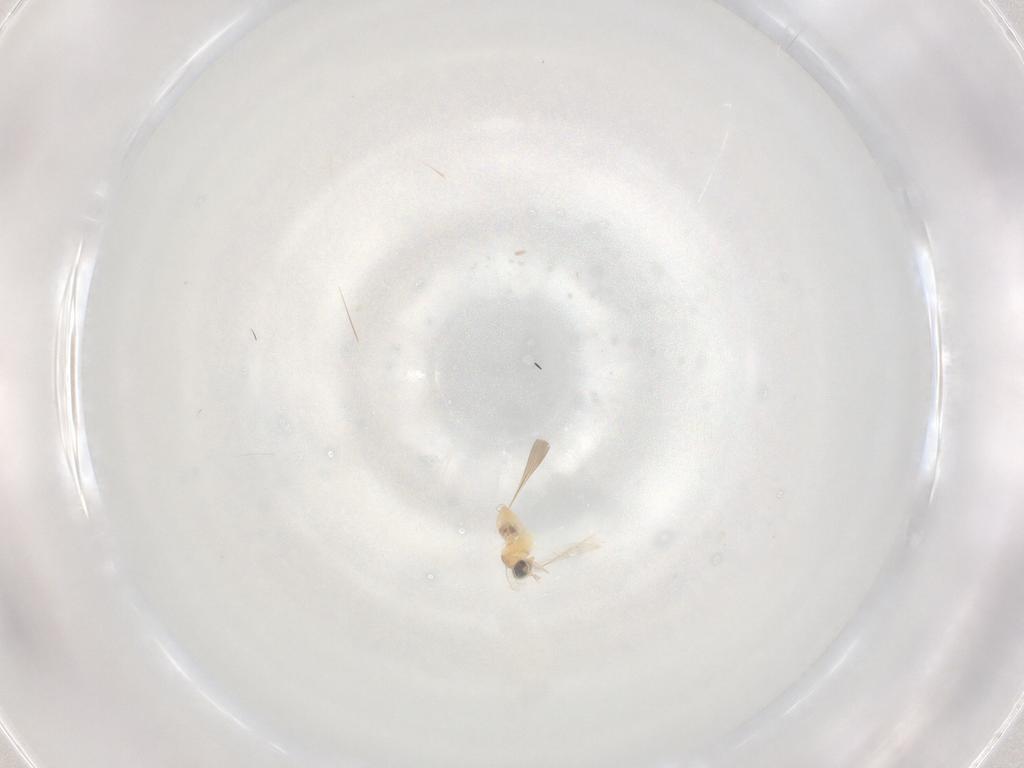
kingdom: Animalia
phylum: Arthropoda
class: Insecta
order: Diptera
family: Cecidomyiidae
